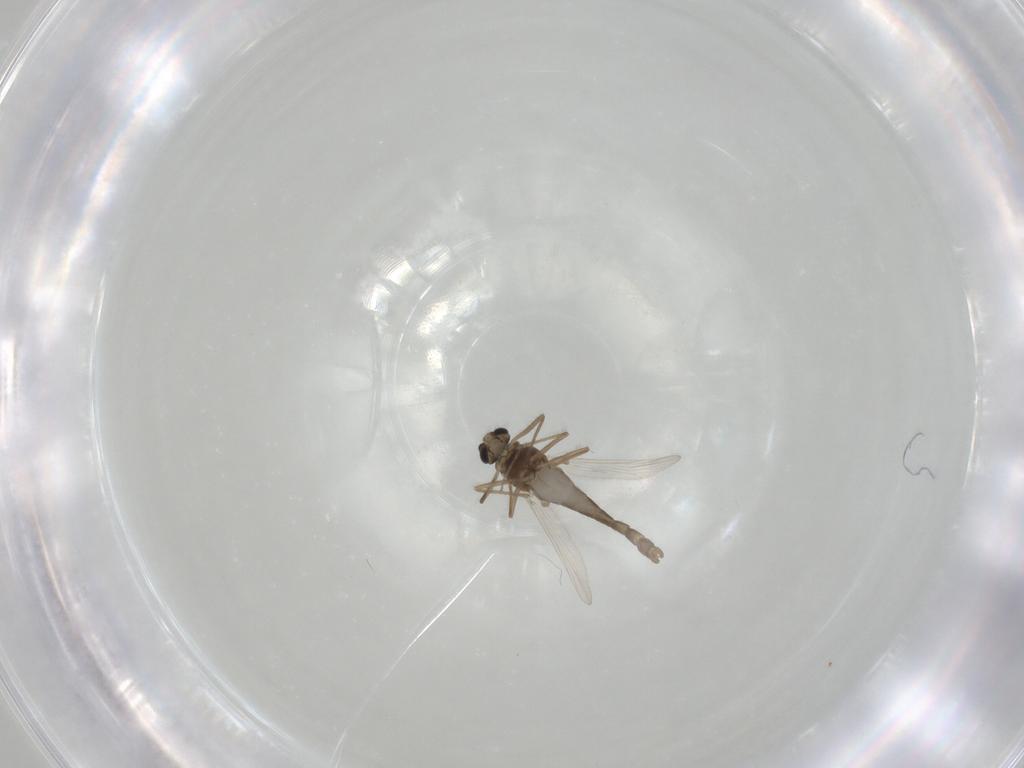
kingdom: Animalia
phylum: Arthropoda
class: Insecta
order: Diptera
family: Chironomidae
